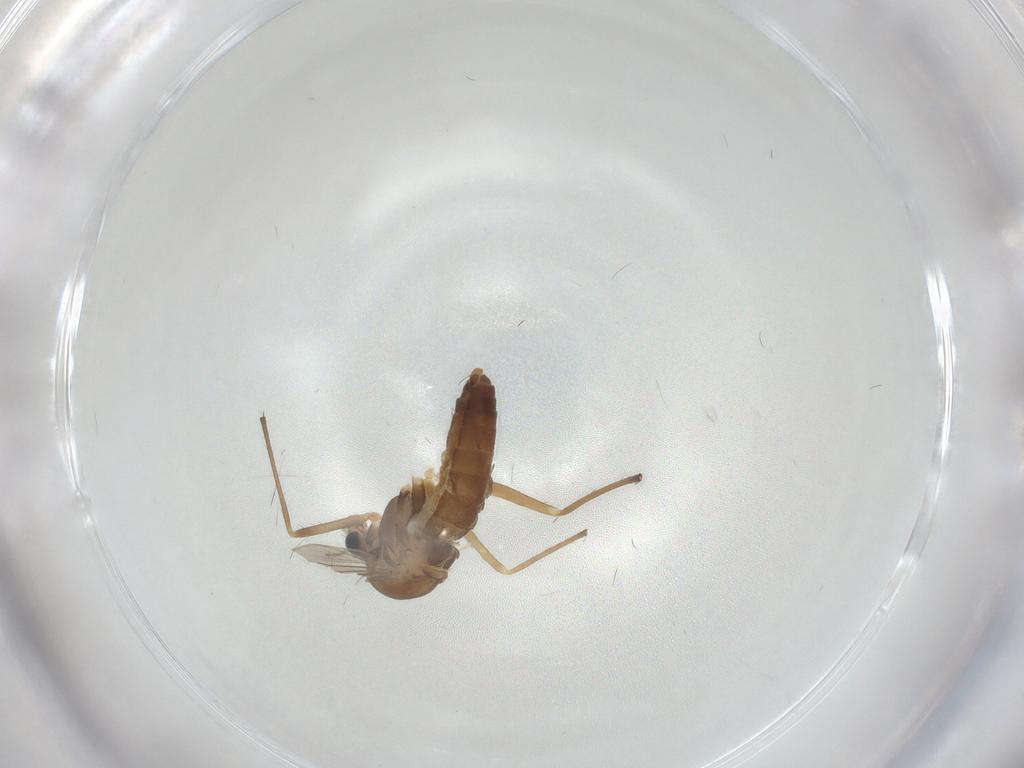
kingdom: Animalia
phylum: Arthropoda
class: Insecta
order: Diptera
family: Chironomidae
